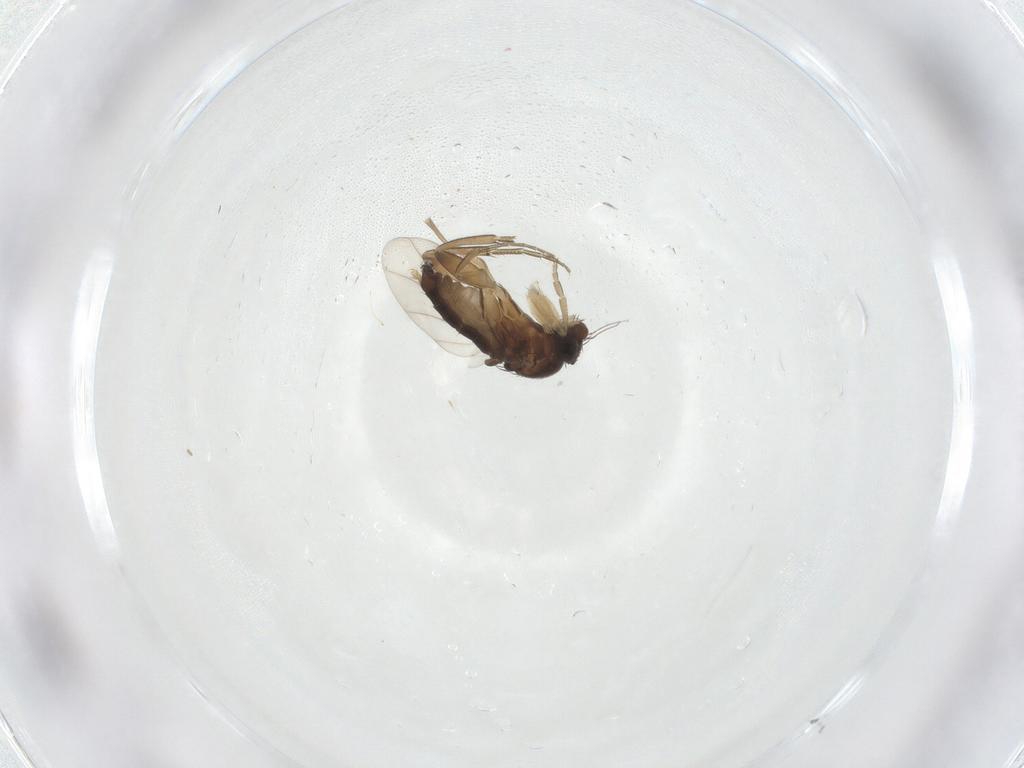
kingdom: Animalia
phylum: Arthropoda
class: Insecta
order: Diptera
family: Phoridae
